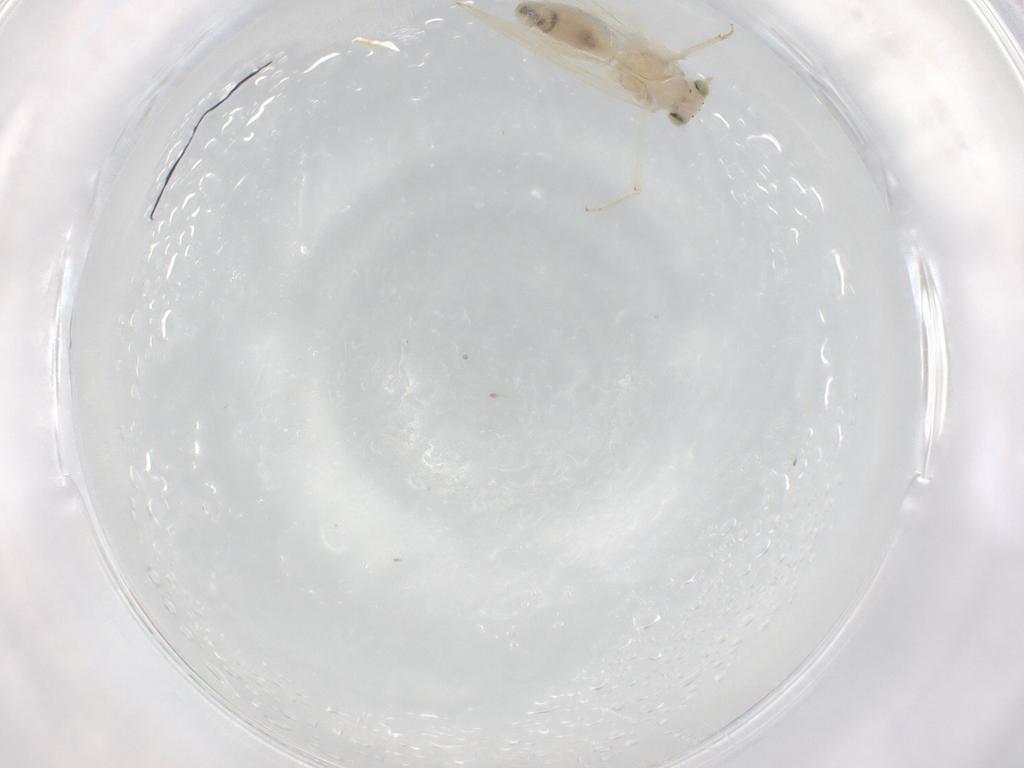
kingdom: Animalia
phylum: Arthropoda
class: Insecta
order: Psocodea
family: Lepidopsocidae
